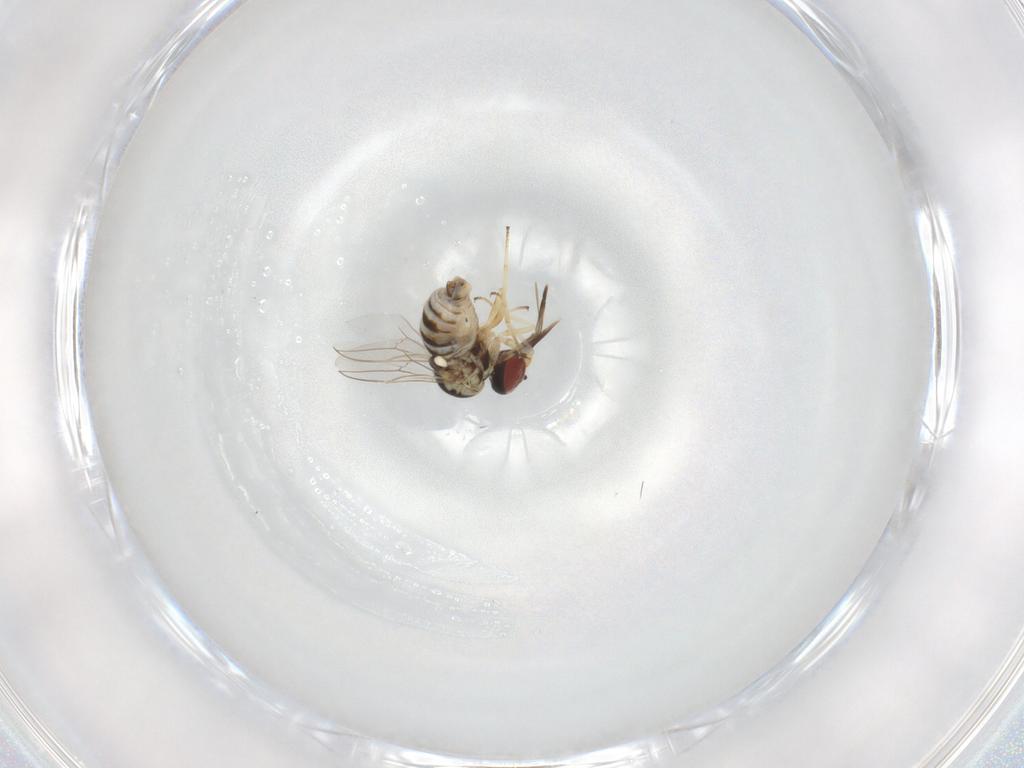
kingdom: Animalia
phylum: Arthropoda
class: Insecta
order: Diptera
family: Bombyliidae
